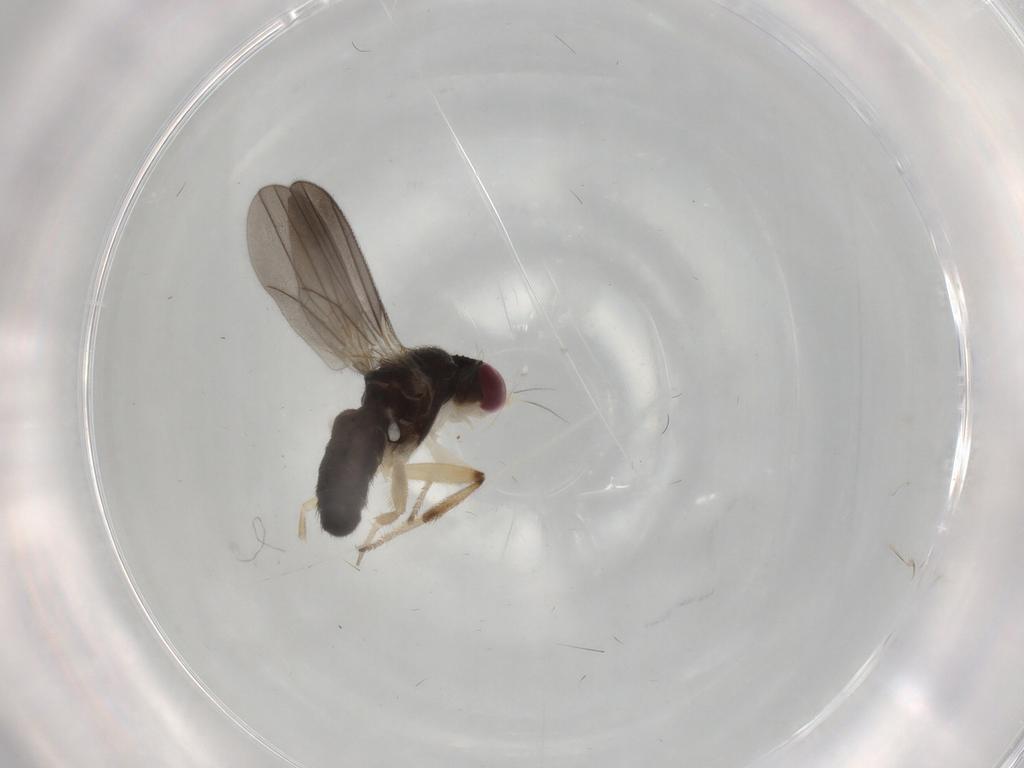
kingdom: Animalia
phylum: Arthropoda
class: Insecta
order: Diptera
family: Clusiidae
